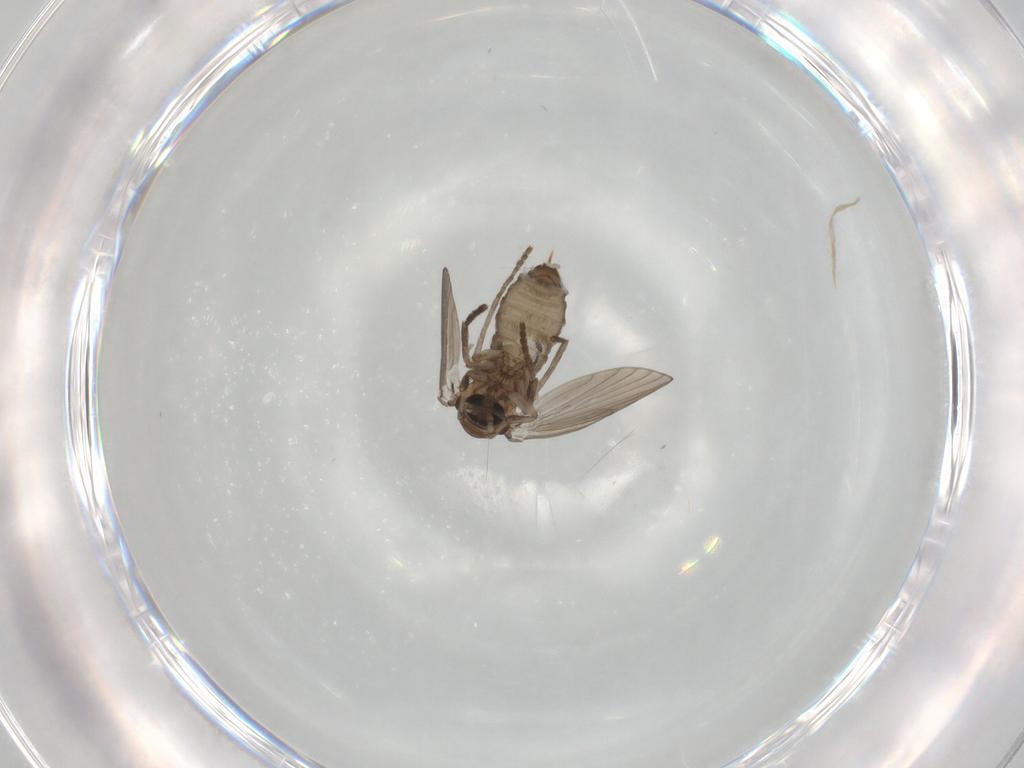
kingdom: Animalia
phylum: Arthropoda
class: Insecta
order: Diptera
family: Psychodidae
